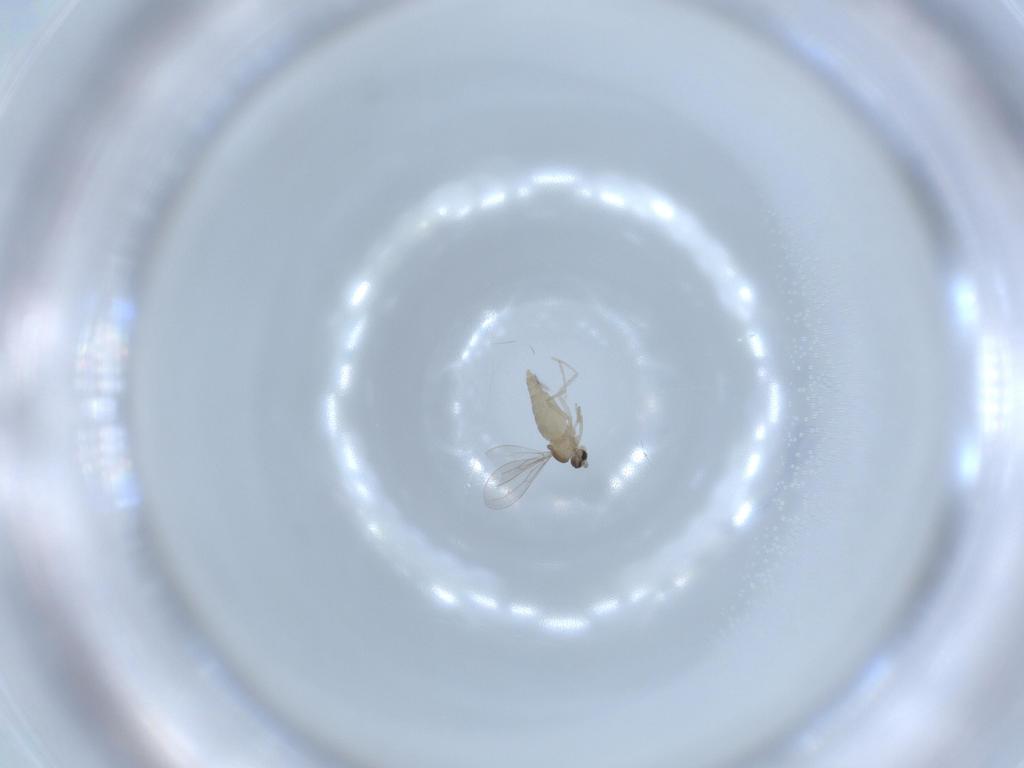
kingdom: Animalia
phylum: Arthropoda
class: Insecta
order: Diptera
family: Cecidomyiidae
